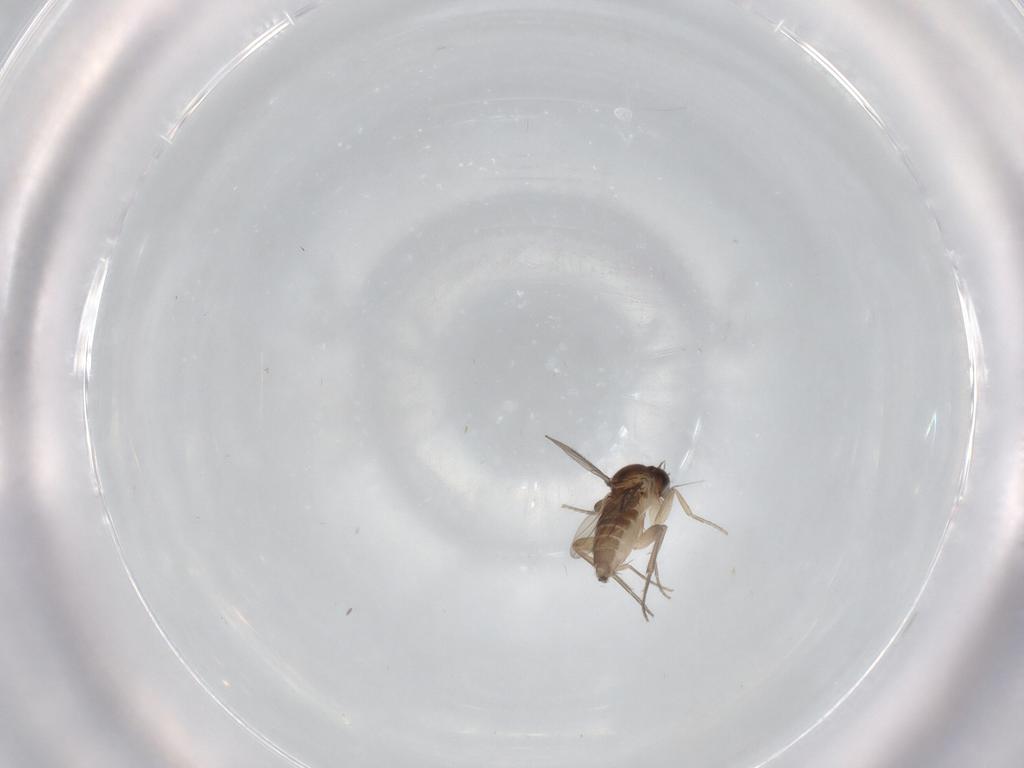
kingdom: Animalia
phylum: Arthropoda
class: Insecta
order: Diptera
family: Phoridae
